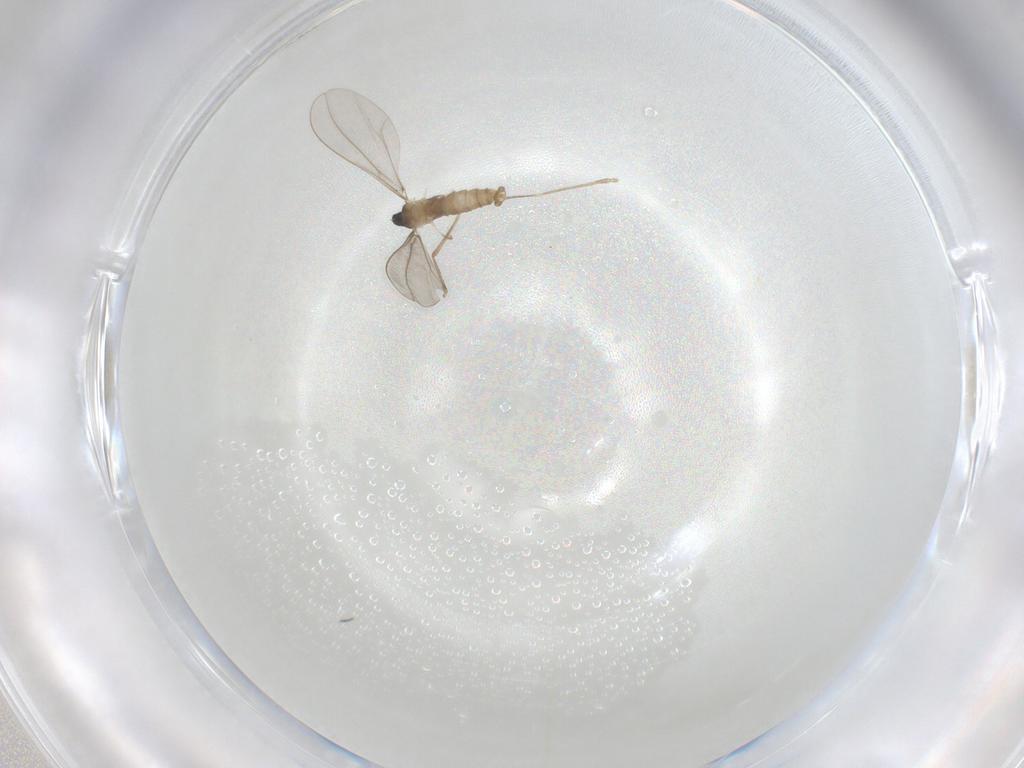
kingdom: Animalia
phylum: Arthropoda
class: Insecta
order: Diptera
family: Cecidomyiidae
